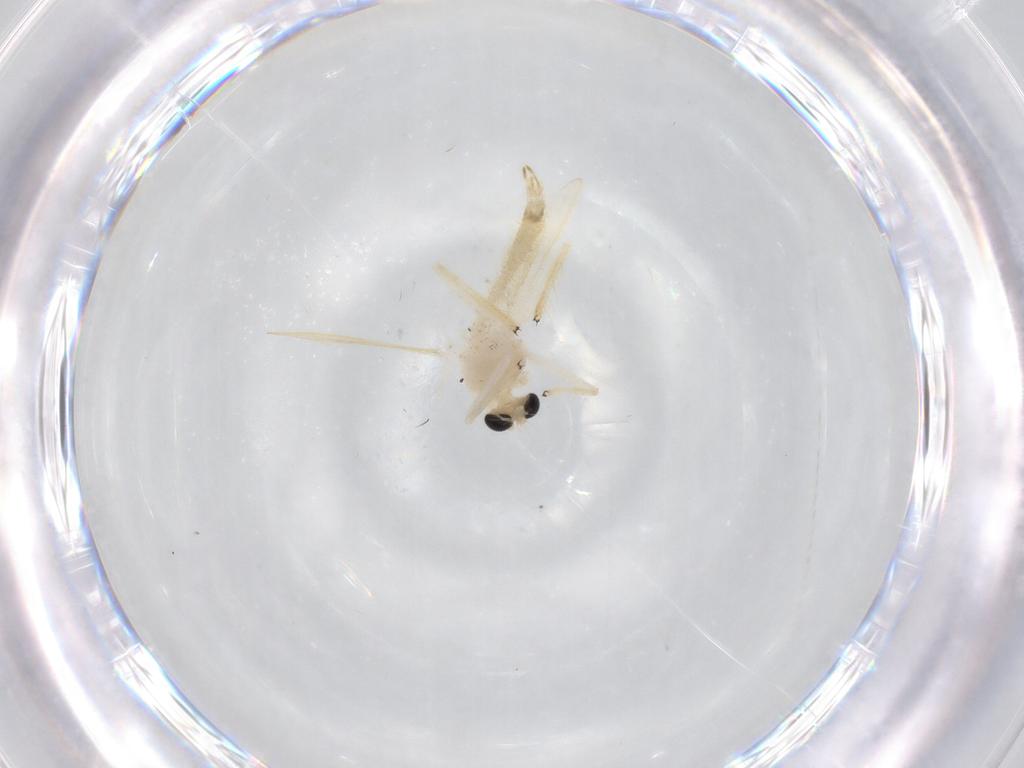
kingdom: Animalia
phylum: Arthropoda
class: Insecta
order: Diptera
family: Chironomidae
